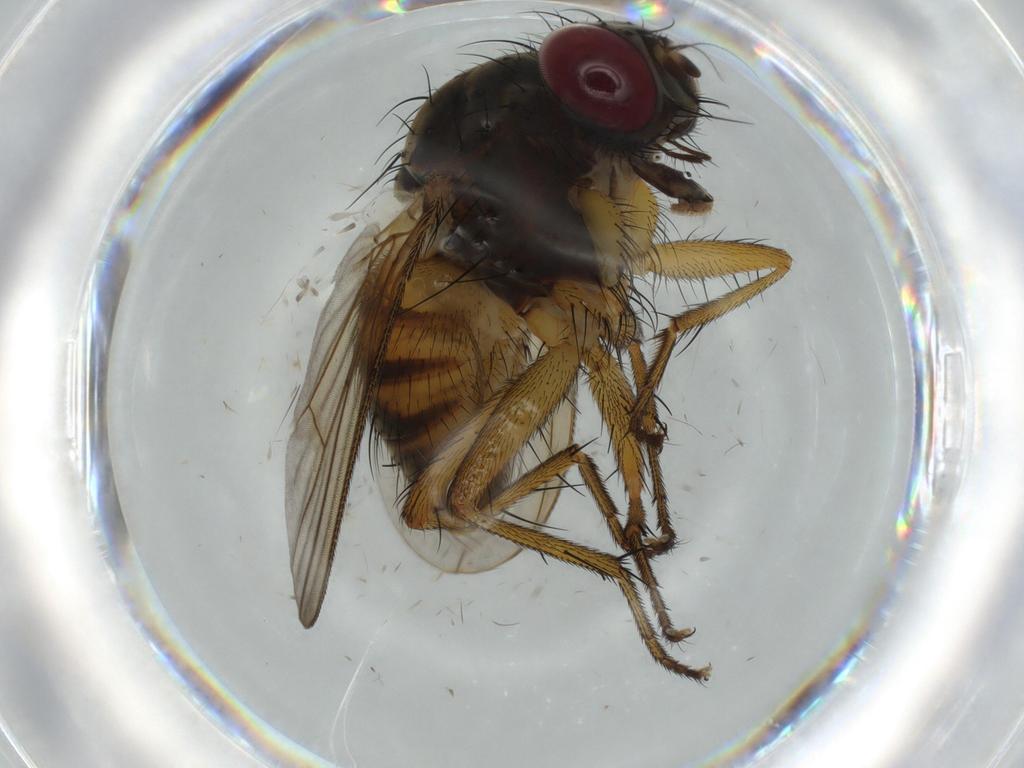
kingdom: Animalia
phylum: Arthropoda
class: Insecta
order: Diptera
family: Muscidae
